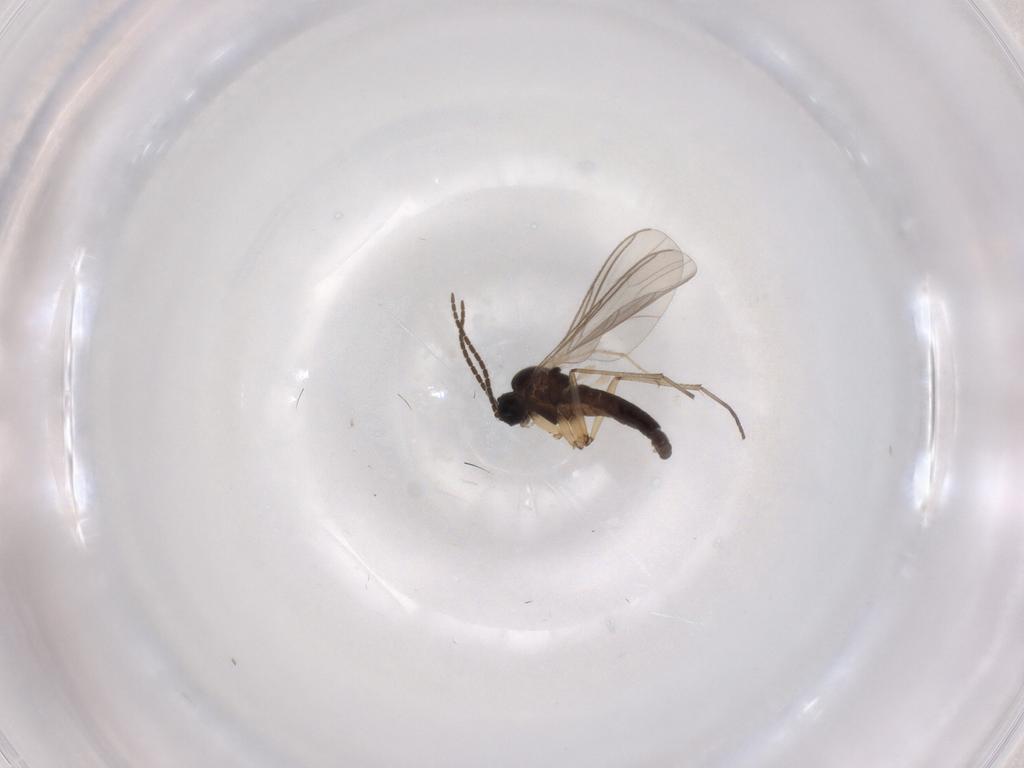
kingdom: Animalia
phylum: Arthropoda
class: Insecta
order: Diptera
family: Sciaridae
